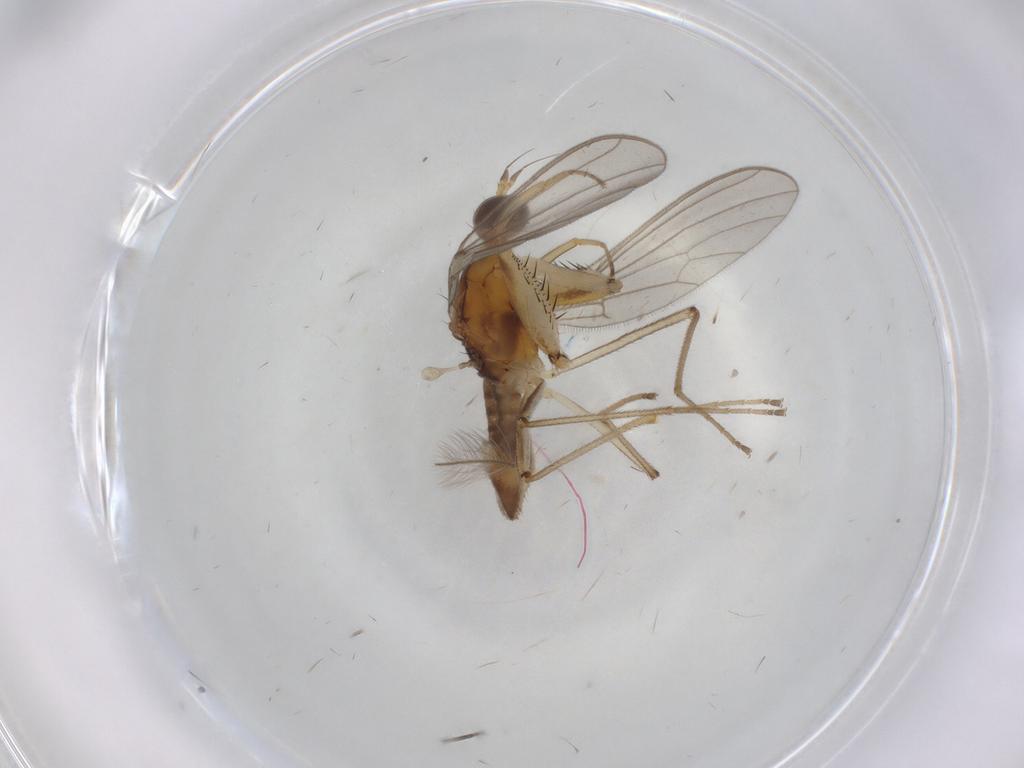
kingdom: Animalia
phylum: Arthropoda
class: Insecta
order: Diptera
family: Empididae
